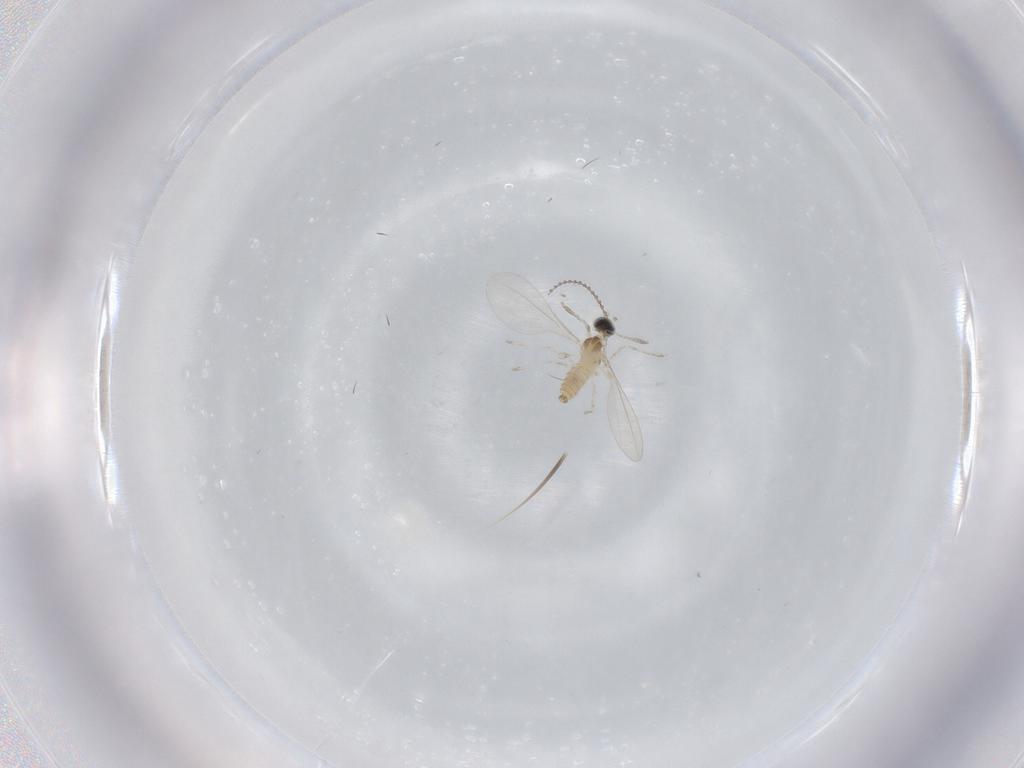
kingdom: Animalia
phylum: Arthropoda
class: Insecta
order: Diptera
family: Cecidomyiidae
